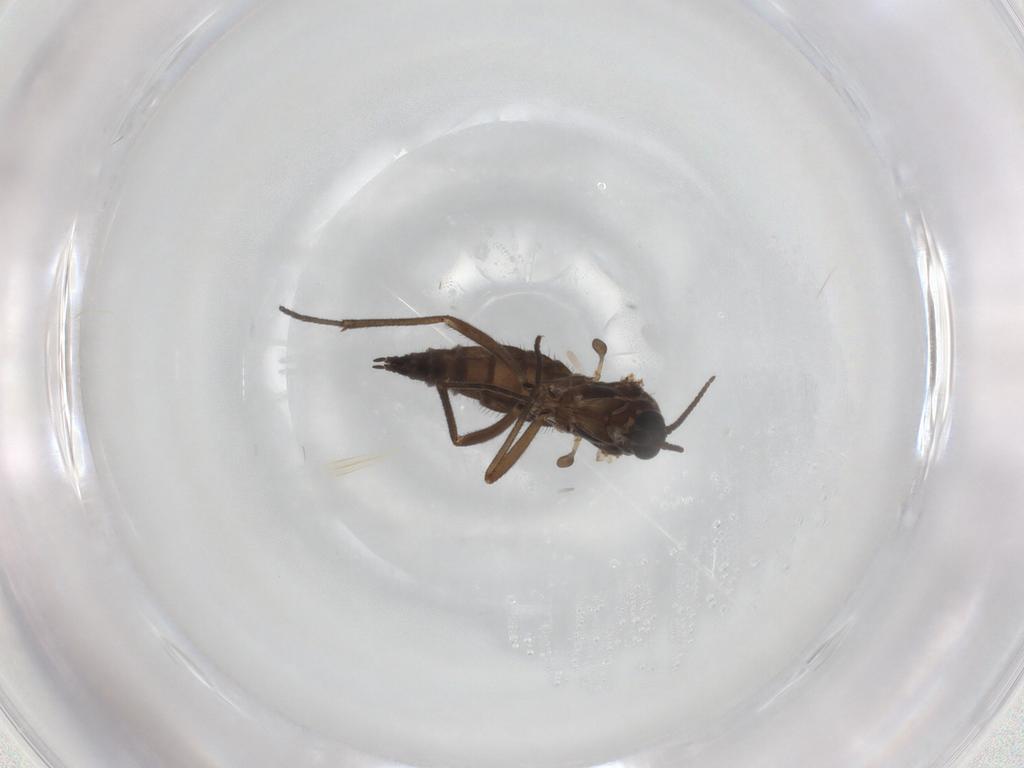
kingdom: Animalia
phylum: Arthropoda
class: Insecta
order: Diptera
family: Sciaridae
